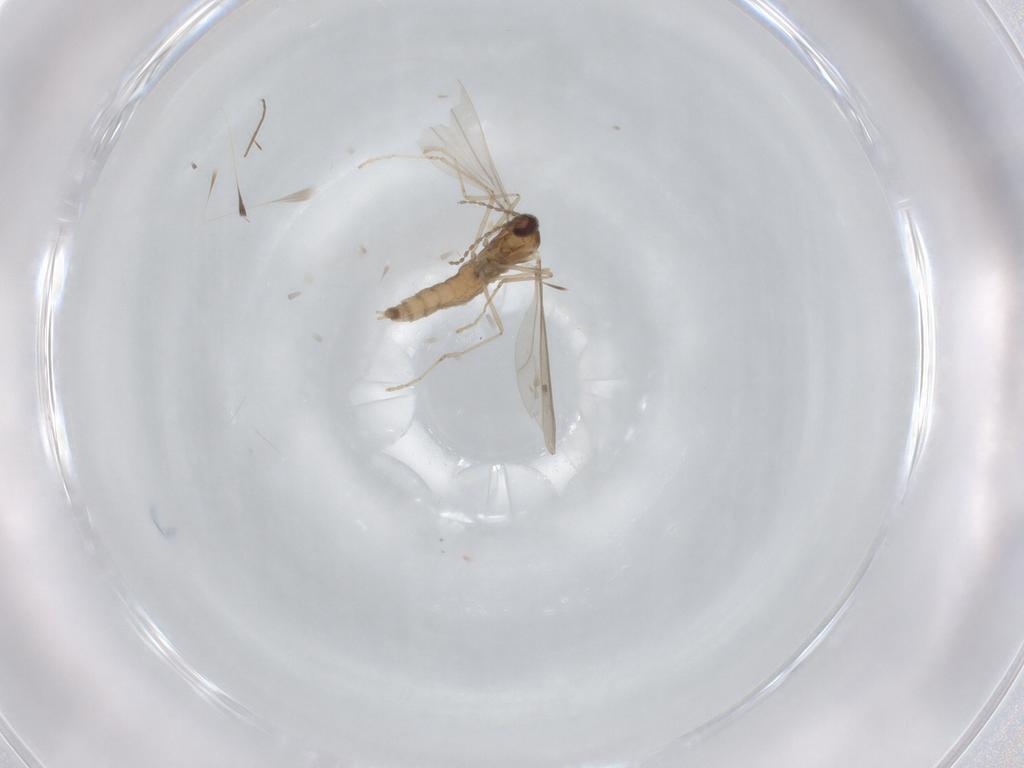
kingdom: Animalia
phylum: Arthropoda
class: Insecta
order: Diptera
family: Cecidomyiidae
